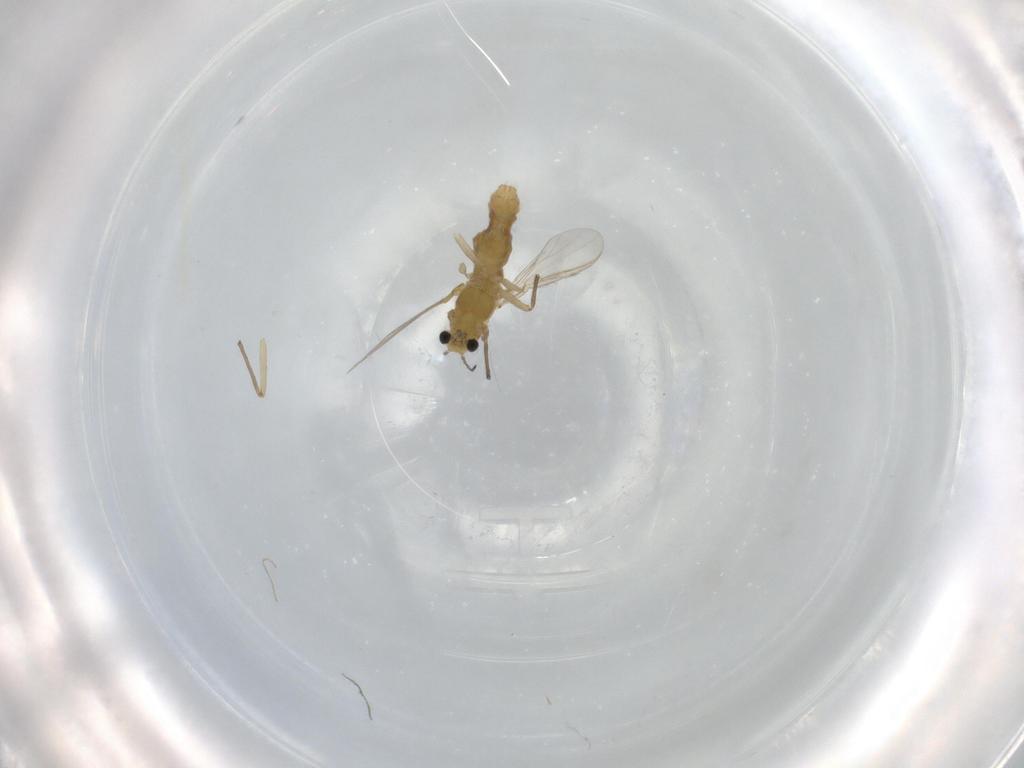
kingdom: Animalia
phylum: Arthropoda
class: Insecta
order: Diptera
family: Chironomidae
